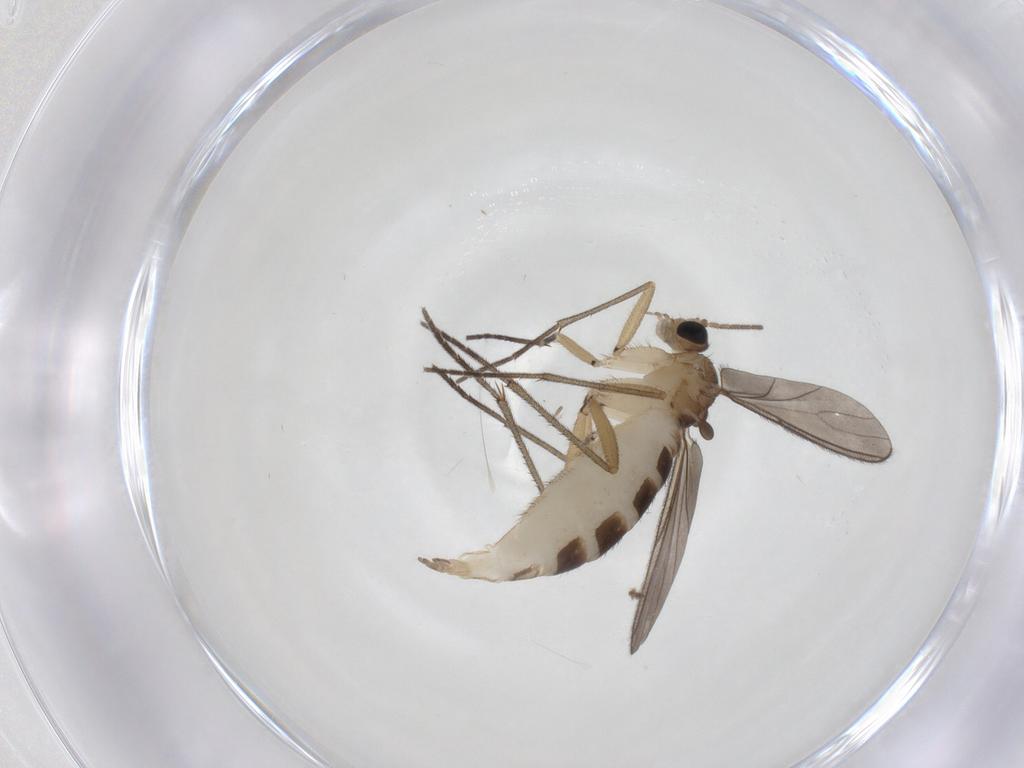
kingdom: Animalia
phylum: Arthropoda
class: Insecta
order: Diptera
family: Sciaridae
